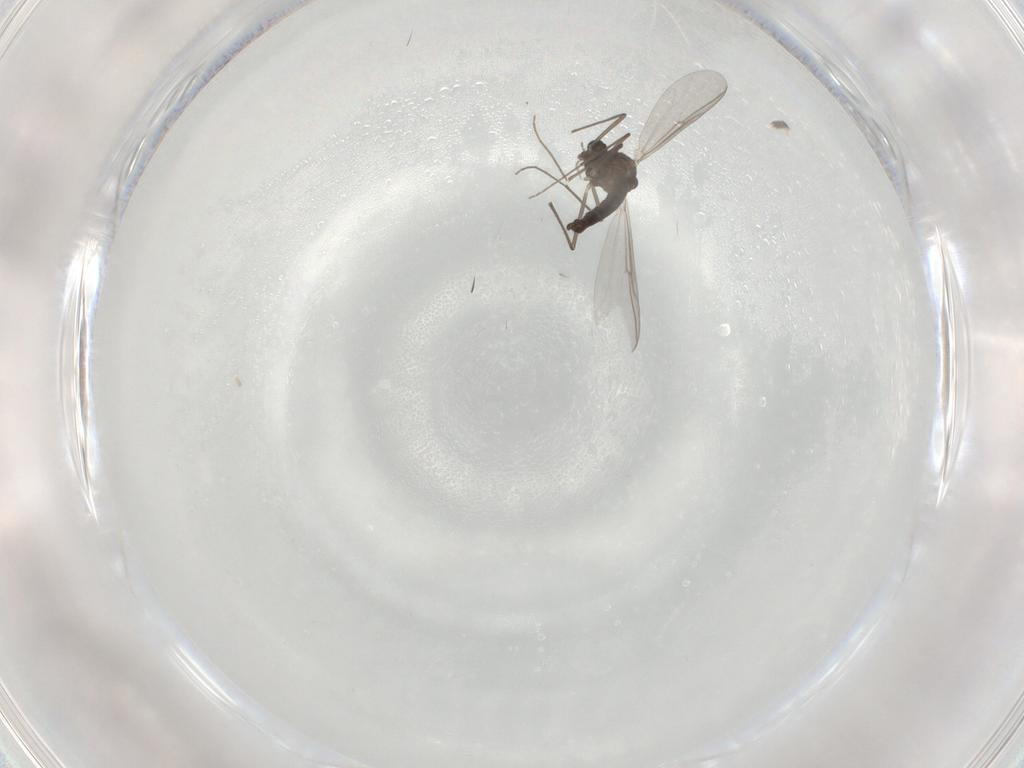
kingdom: Animalia
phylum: Arthropoda
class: Insecta
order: Diptera
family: Chironomidae
